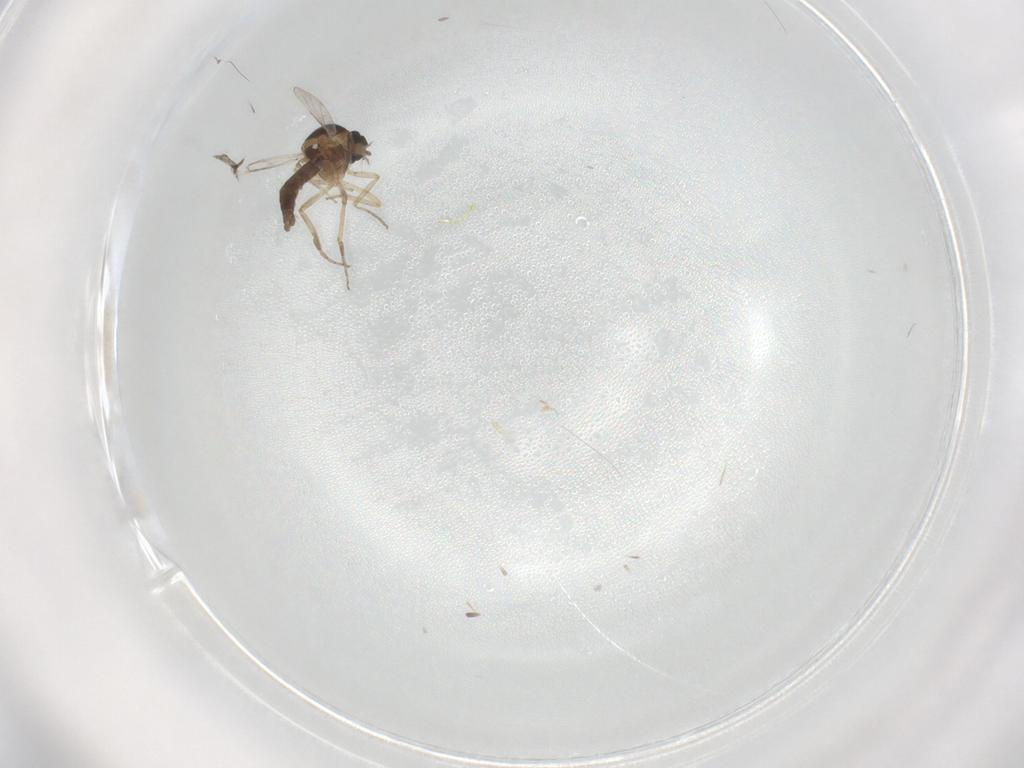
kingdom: Animalia
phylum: Arthropoda
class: Insecta
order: Diptera
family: Ceratopogonidae
